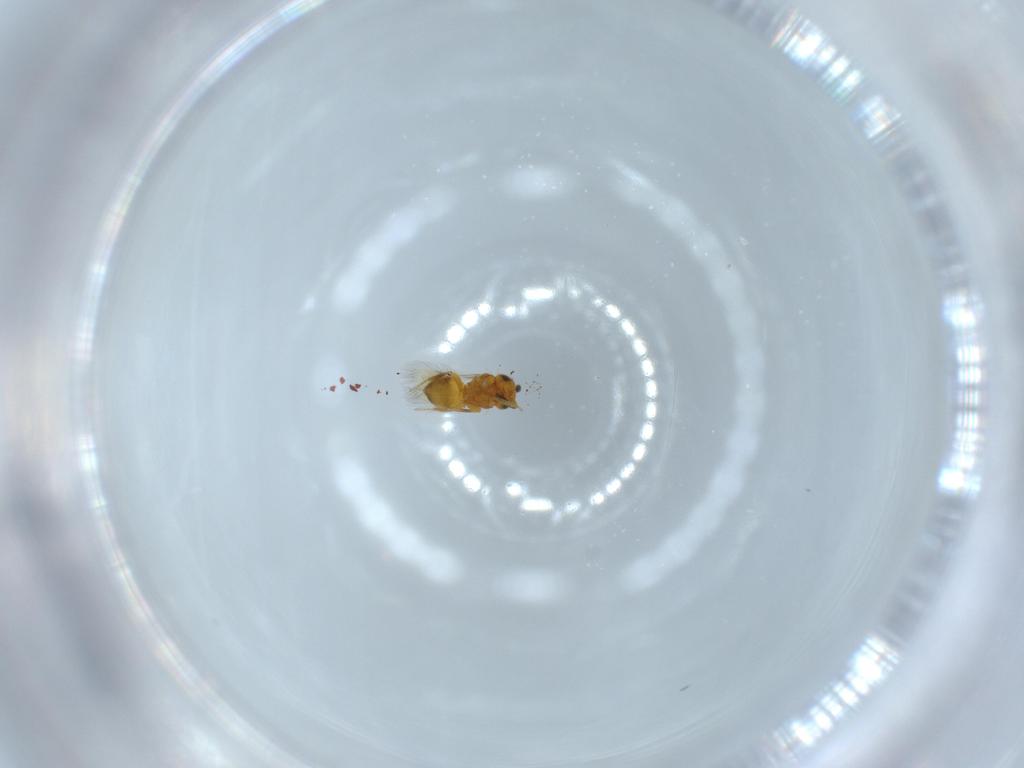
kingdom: Animalia
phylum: Arthropoda
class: Insecta
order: Hymenoptera
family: Scelionidae
